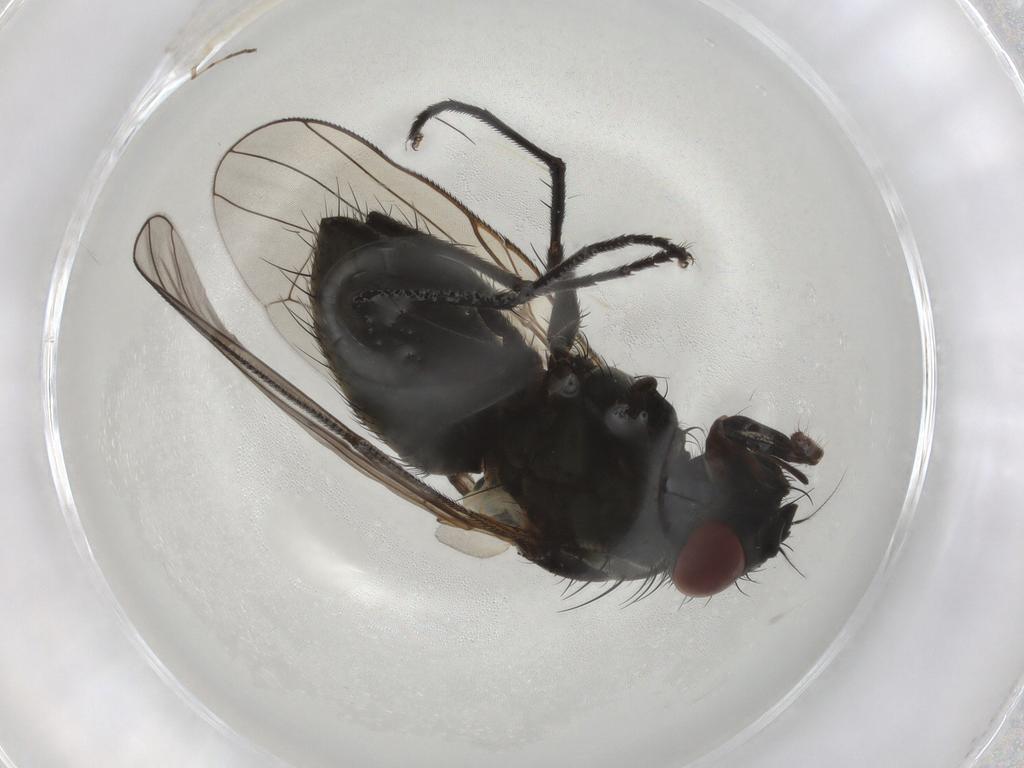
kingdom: Animalia
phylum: Arthropoda
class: Insecta
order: Diptera
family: Muscidae
